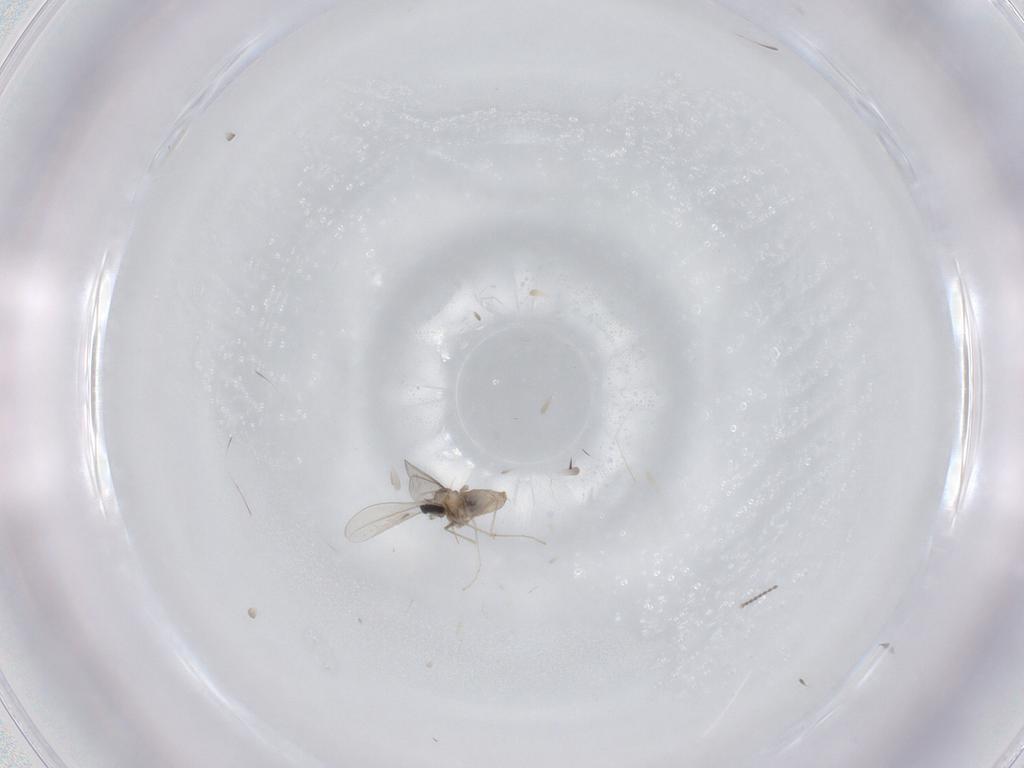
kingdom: Animalia
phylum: Arthropoda
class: Insecta
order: Diptera
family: Cecidomyiidae
